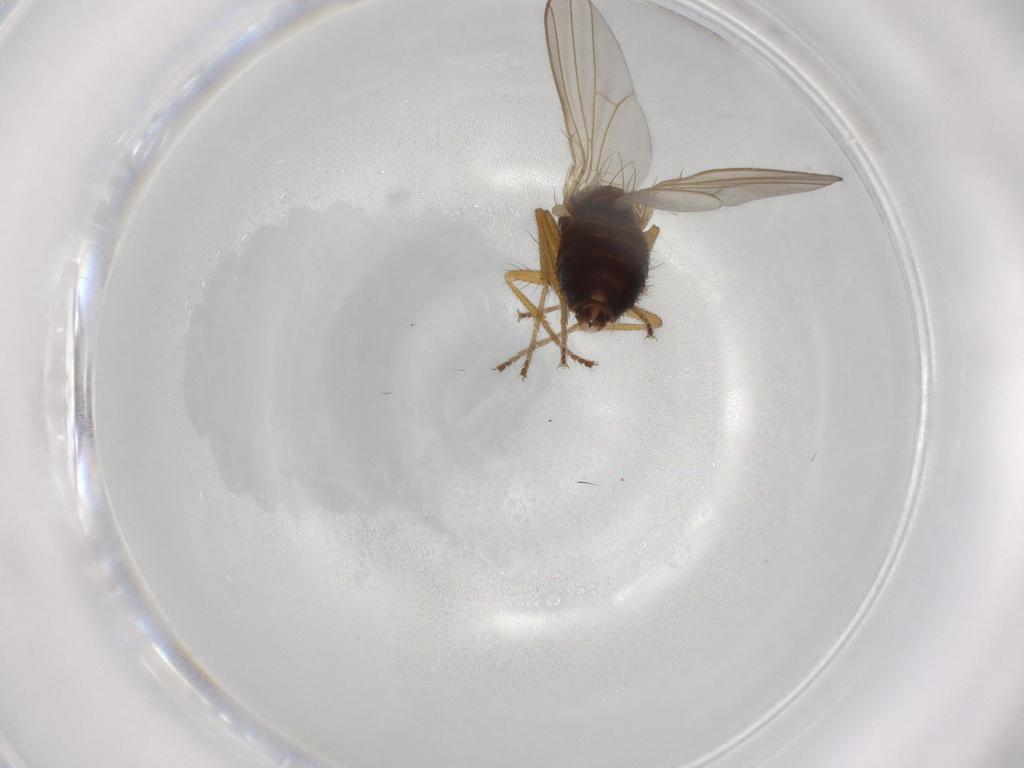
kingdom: Animalia
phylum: Arthropoda
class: Insecta
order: Diptera
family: Drosophilidae
